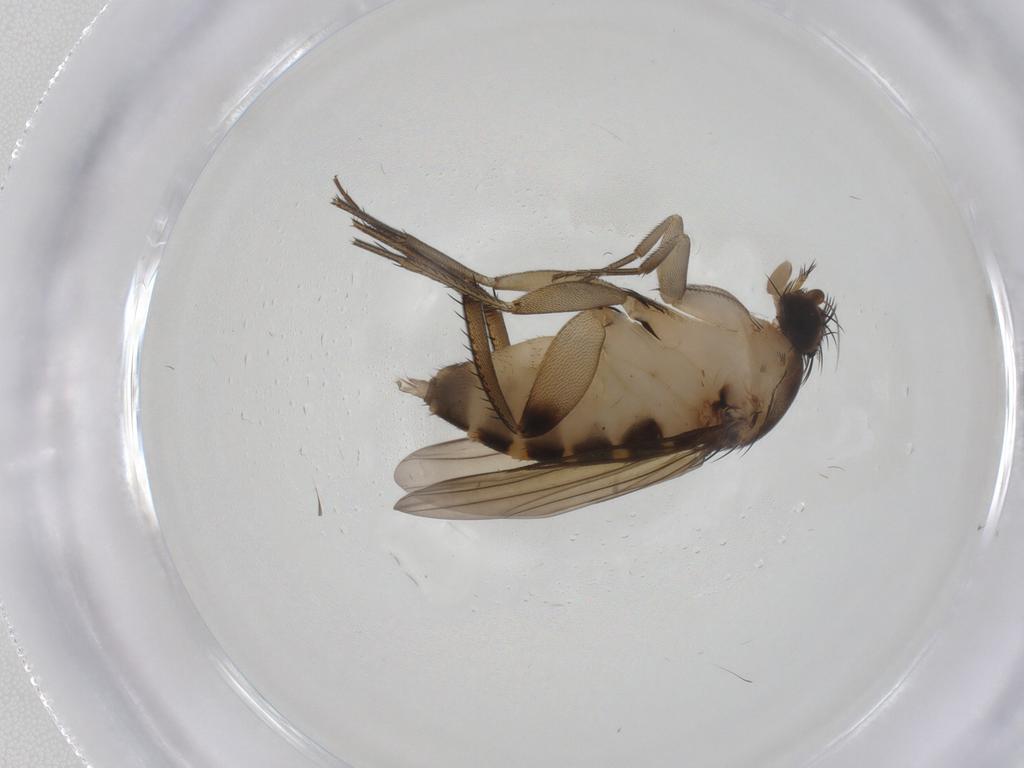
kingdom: Animalia
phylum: Arthropoda
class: Insecta
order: Diptera
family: Phoridae
